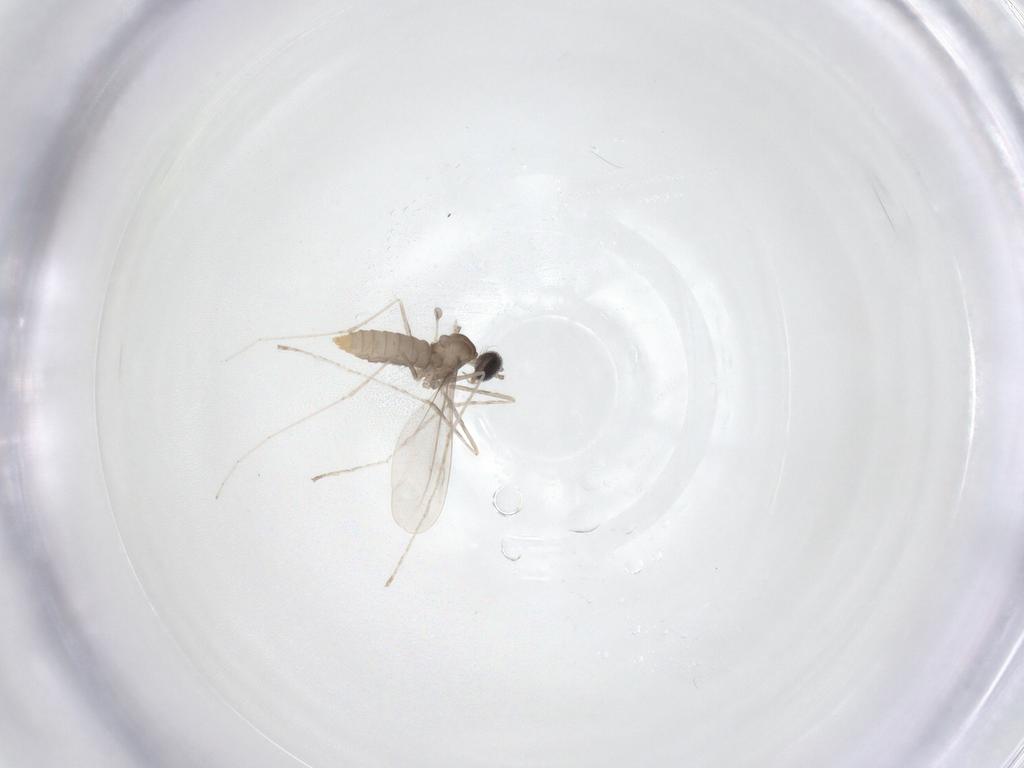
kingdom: Animalia
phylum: Arthropoda
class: Insecta
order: Diptera
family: Cecidomyiidae
